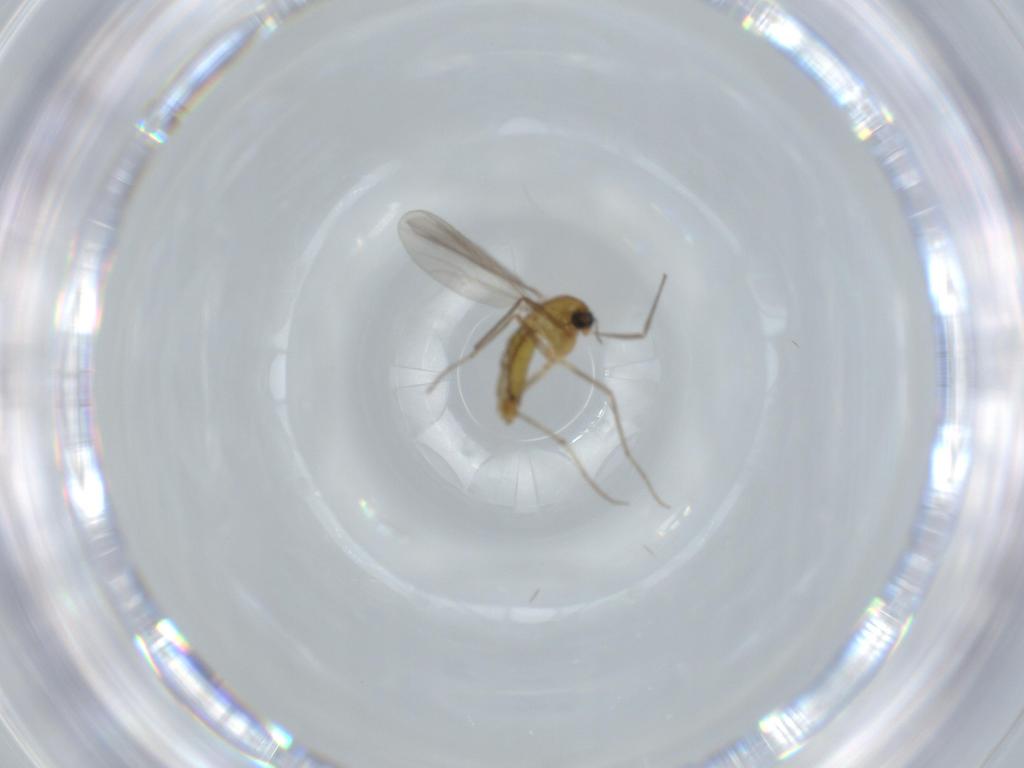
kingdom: Animalia
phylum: Arthropoda
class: Insecta
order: Diptera
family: Chironomidae
